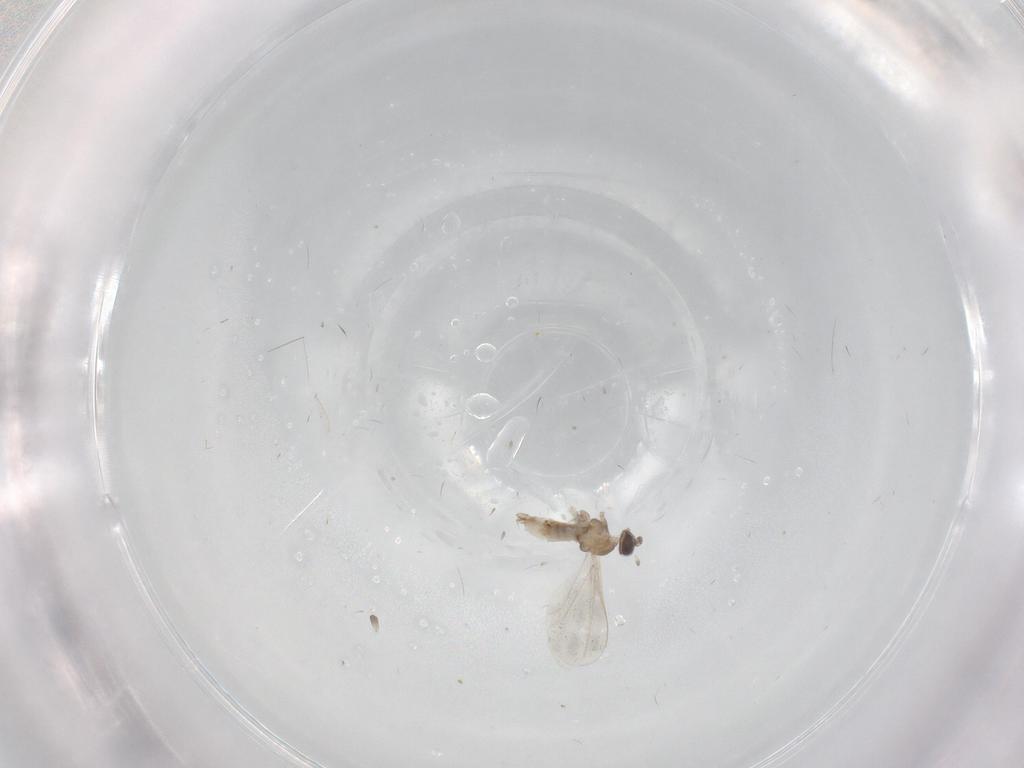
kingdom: Animalia
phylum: Arthropoda
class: Insecta
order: Diptera
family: Cecidomyiidae
